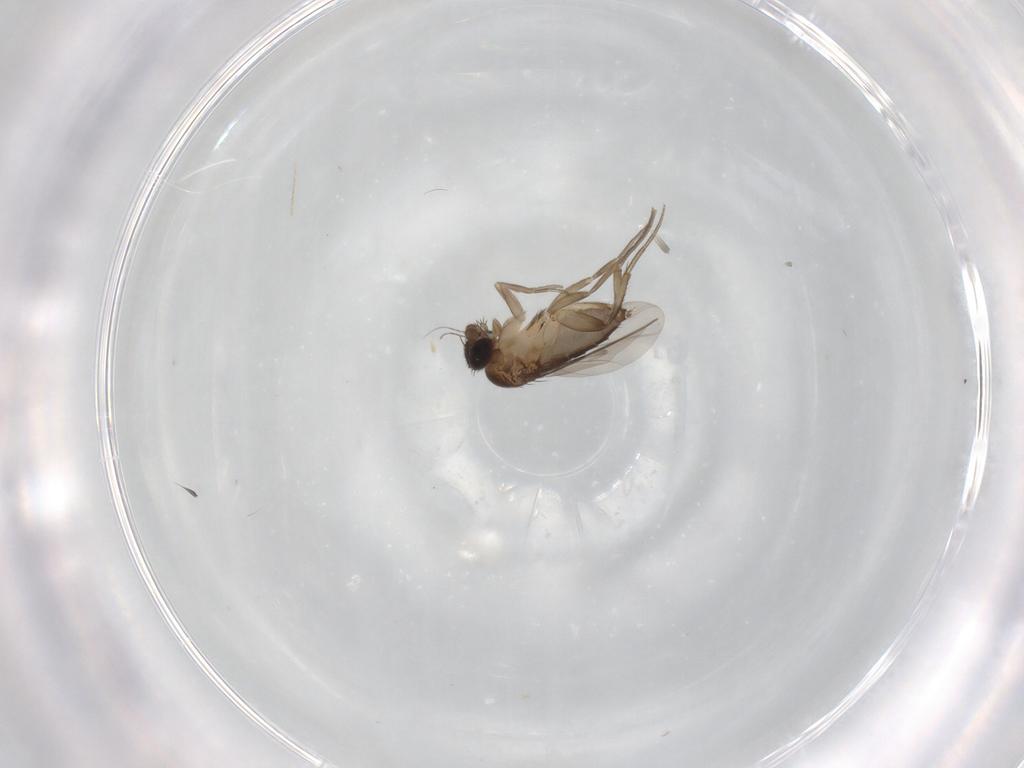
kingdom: Animalia
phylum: Arthropoda
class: Insecta
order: Diptera
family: Phoridae
